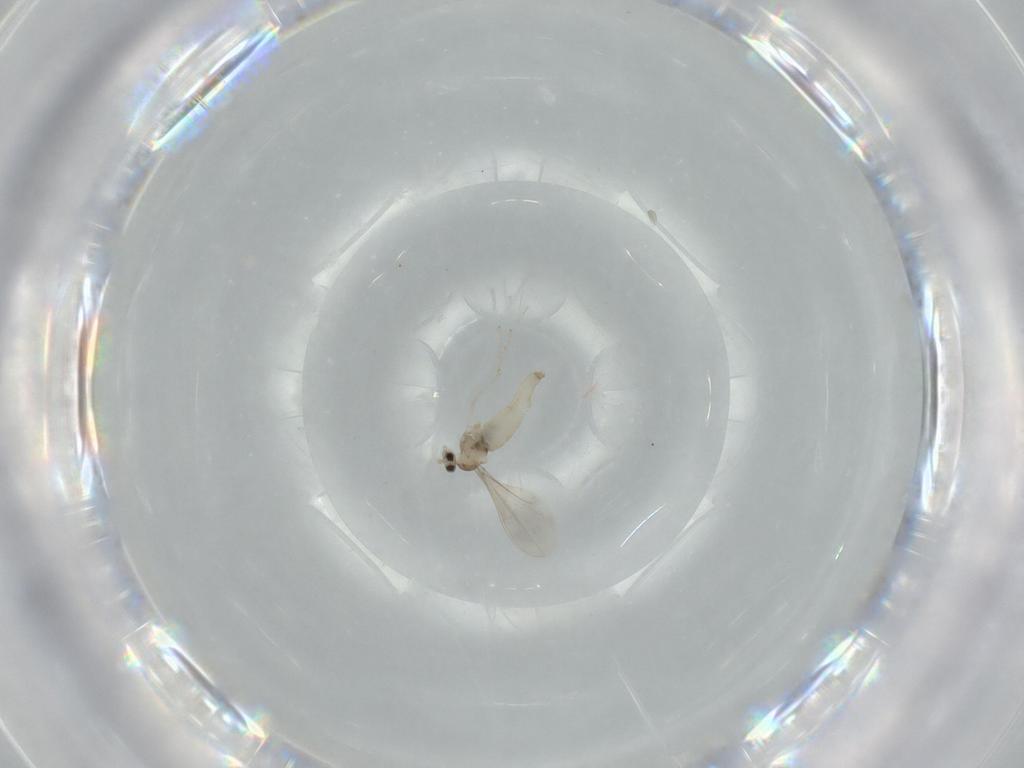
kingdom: Animalia
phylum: Arthropoda
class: Insecta
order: Diptera
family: Cecidomyiidae
